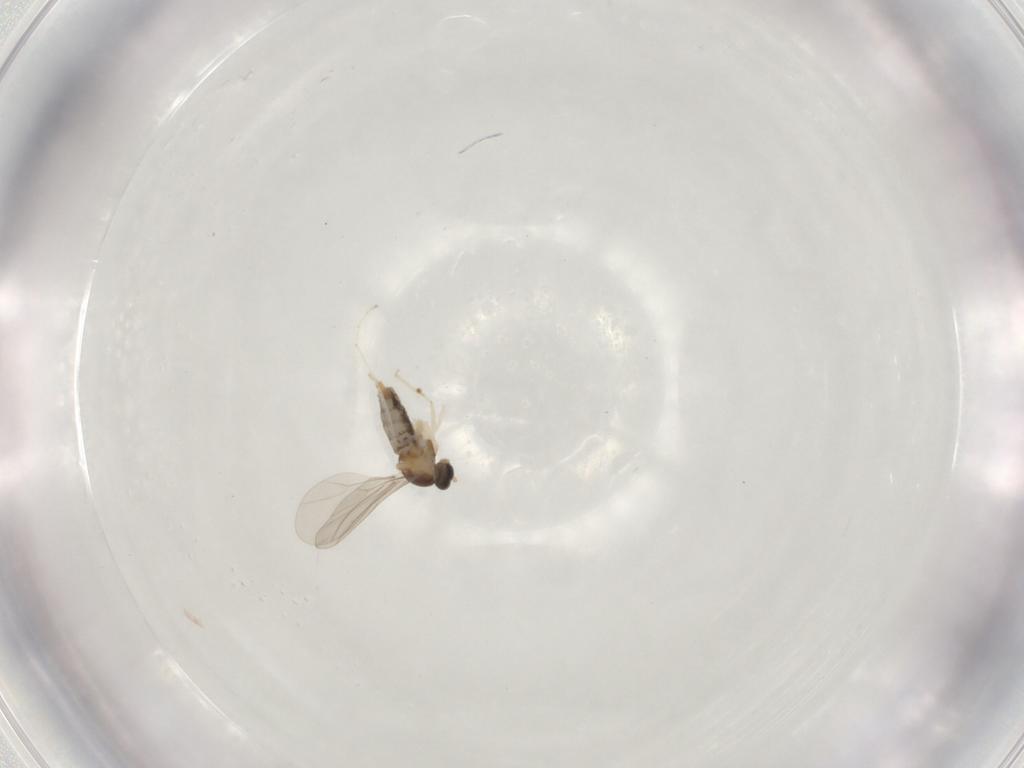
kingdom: Animalia
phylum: Arthropoda
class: Insecta
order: Diptera
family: Cecidomyiidae
